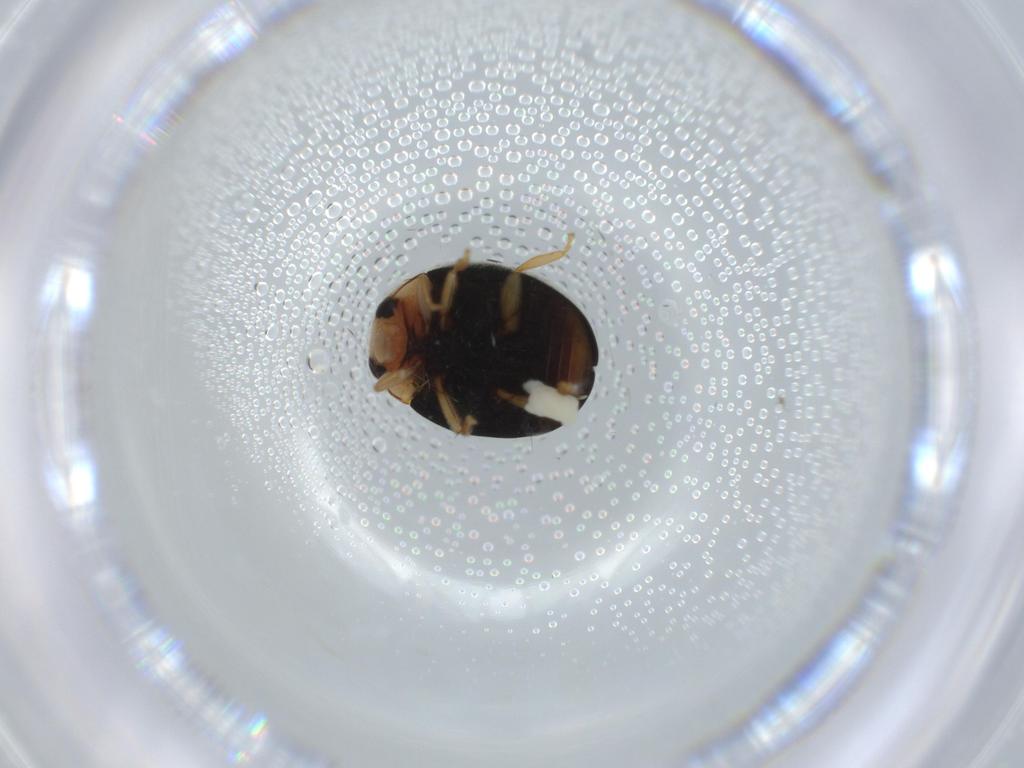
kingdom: Animalia
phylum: Arthropoda
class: Insecta
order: Coleoptera
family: Coccinellidae
